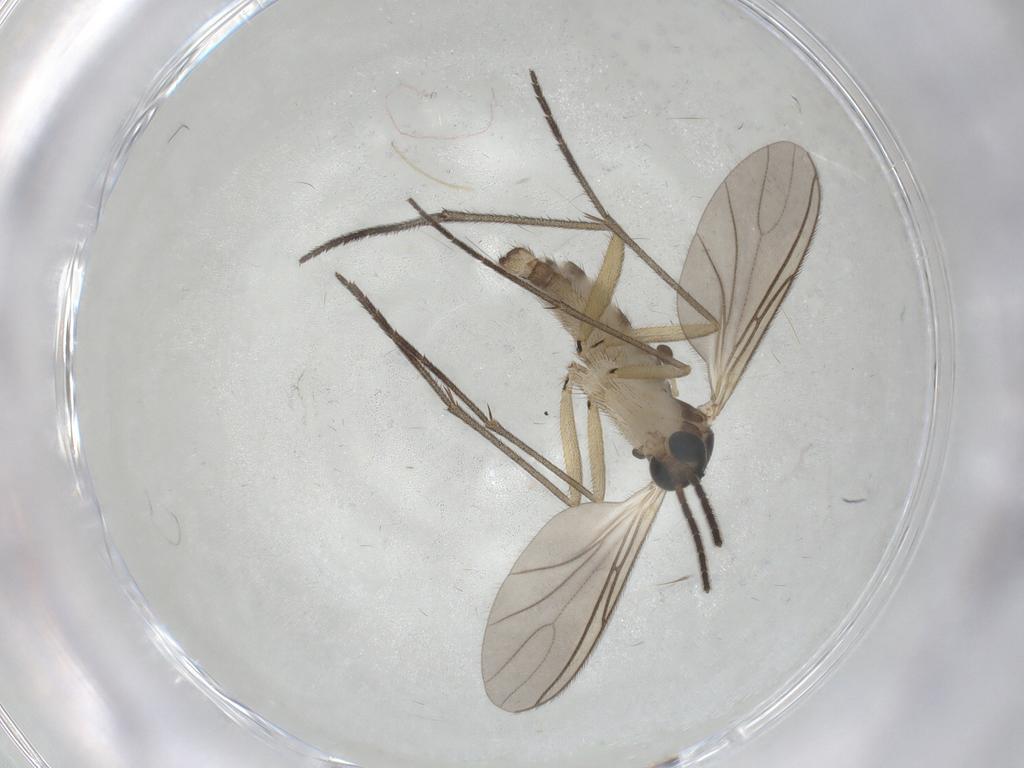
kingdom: Animalia
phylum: Arthropoda
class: Insecta
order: Diptera
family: Sciaridae
